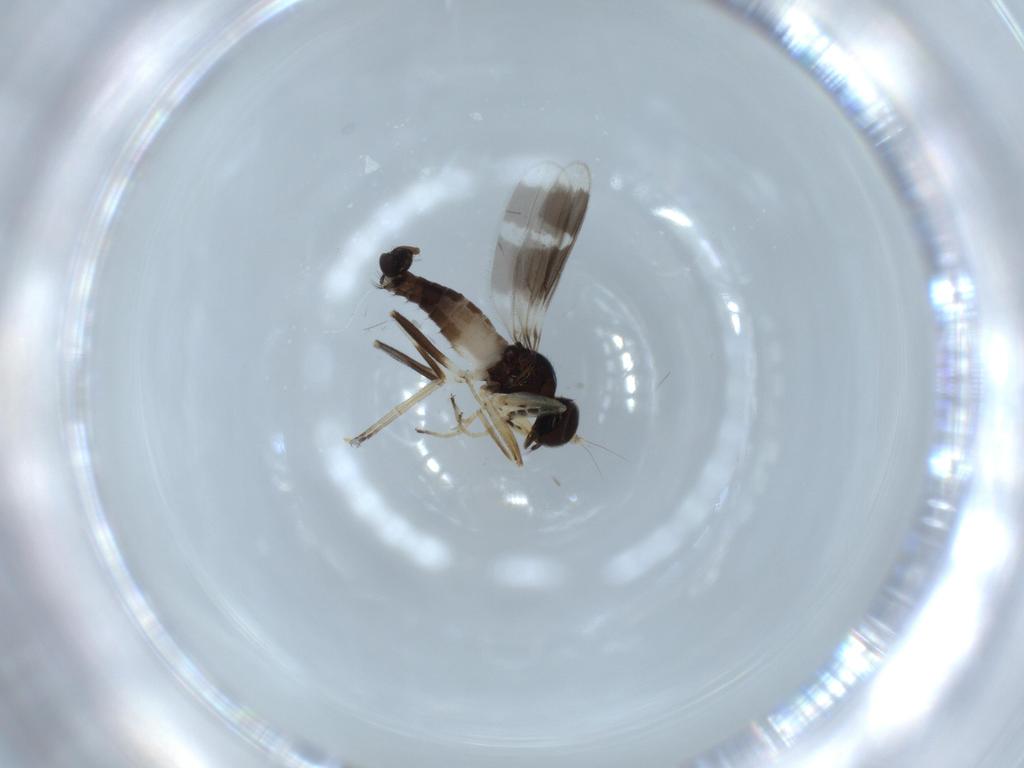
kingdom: Animalia
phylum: Arthropoda
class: Insecta
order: Diptera
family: Hybotidae
